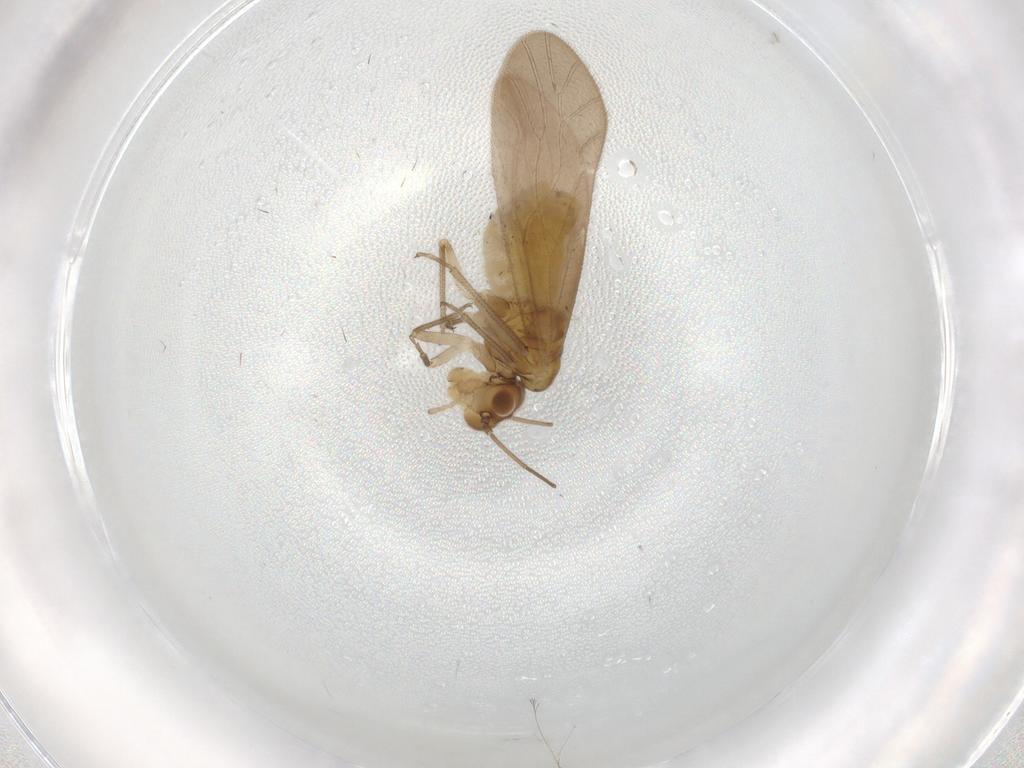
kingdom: Animalia
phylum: Arthropoda
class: Insecta
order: Psocodea
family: Caeciliusidae
